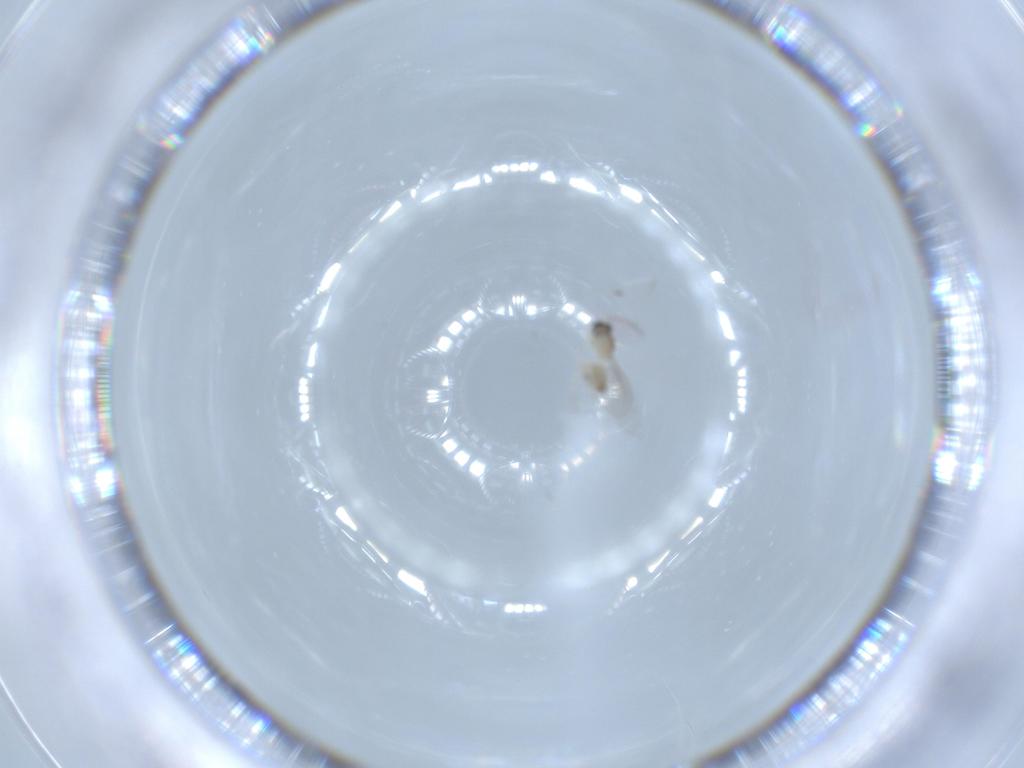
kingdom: Animalia
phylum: Arthropoda
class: Insecta
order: Diptera
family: Cecidomyiidae
